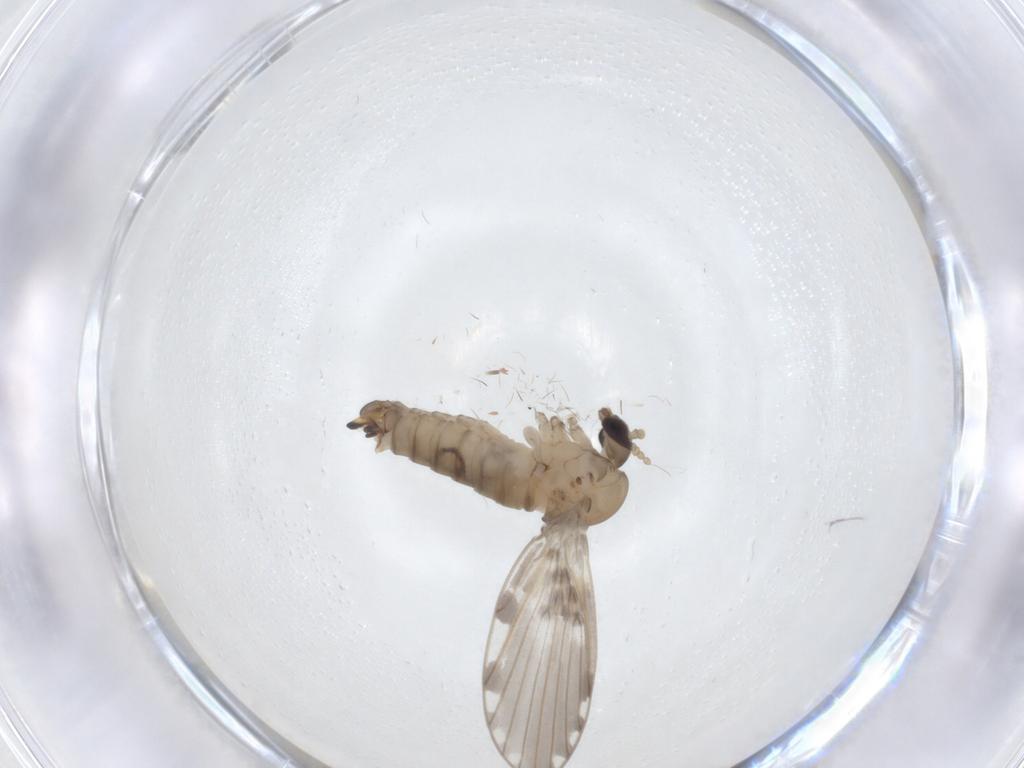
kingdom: Animalia
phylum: Arthropoda
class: Insecta
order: Diptera
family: Psychodidae
